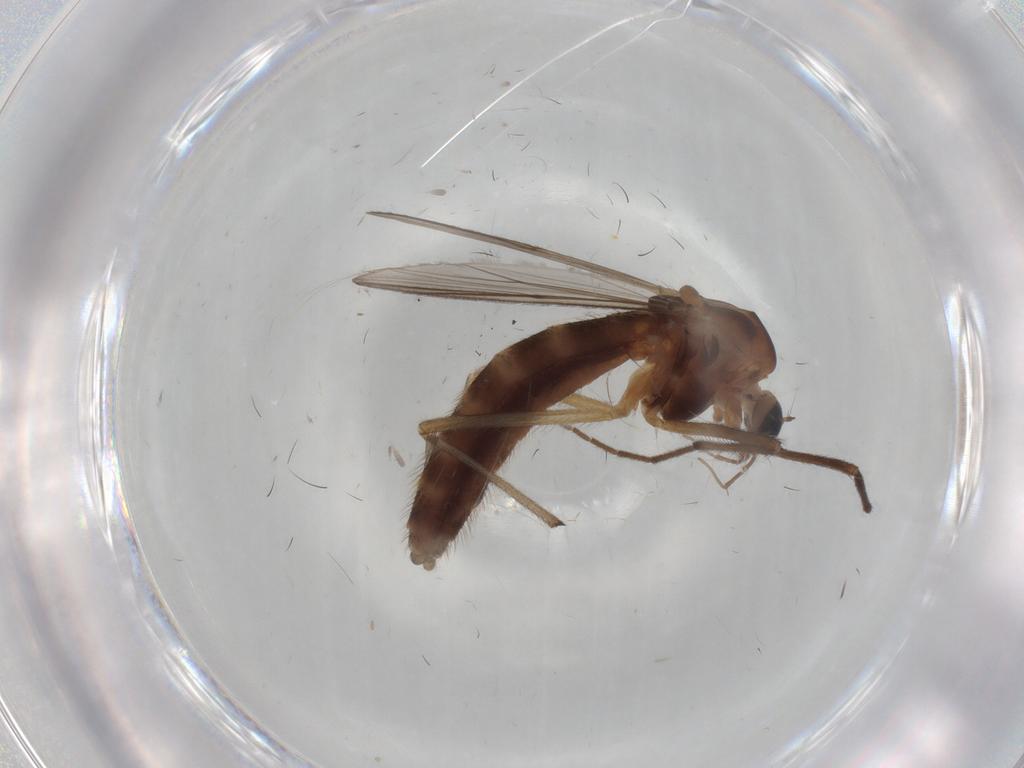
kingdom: Animalia
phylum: Arthropoda
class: Insecta
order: Diptera
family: Chironomidae
